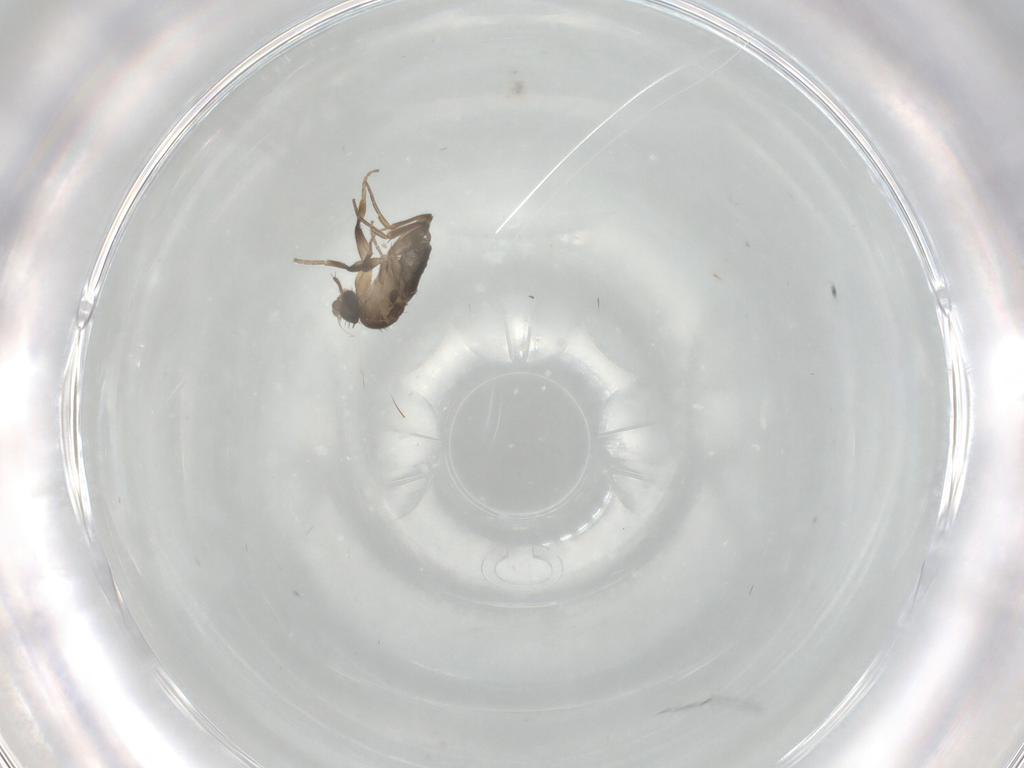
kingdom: Animalia
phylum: Arthropoda
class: Insecta
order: Diptera
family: Phoridae
